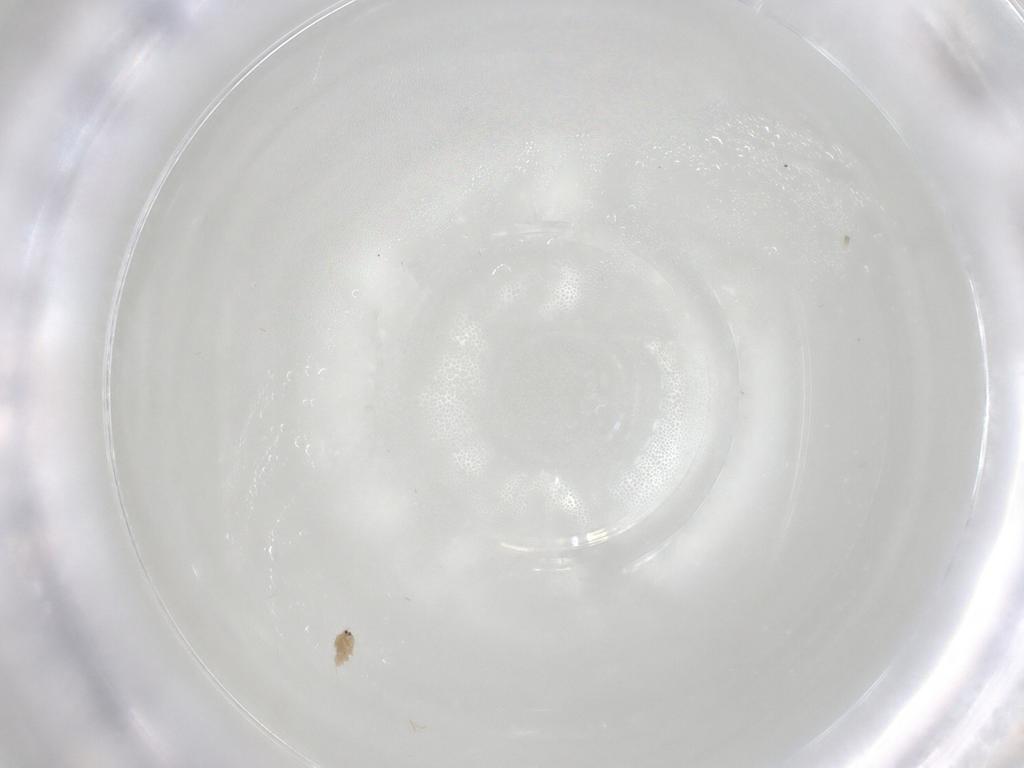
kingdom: Animalia
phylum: Arthropoda
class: Insecta
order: Hemiptera
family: Diaspididae
